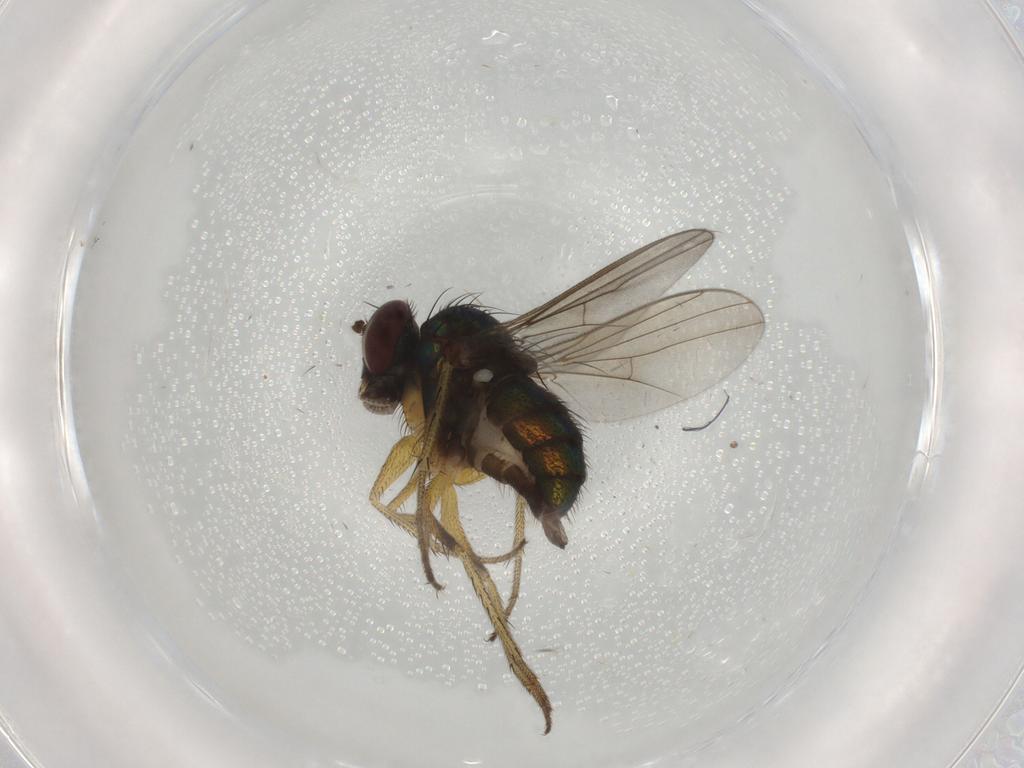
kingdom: Animalia
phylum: Arthropoda
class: Insecta
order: Diptera
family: Dolichopodidae
